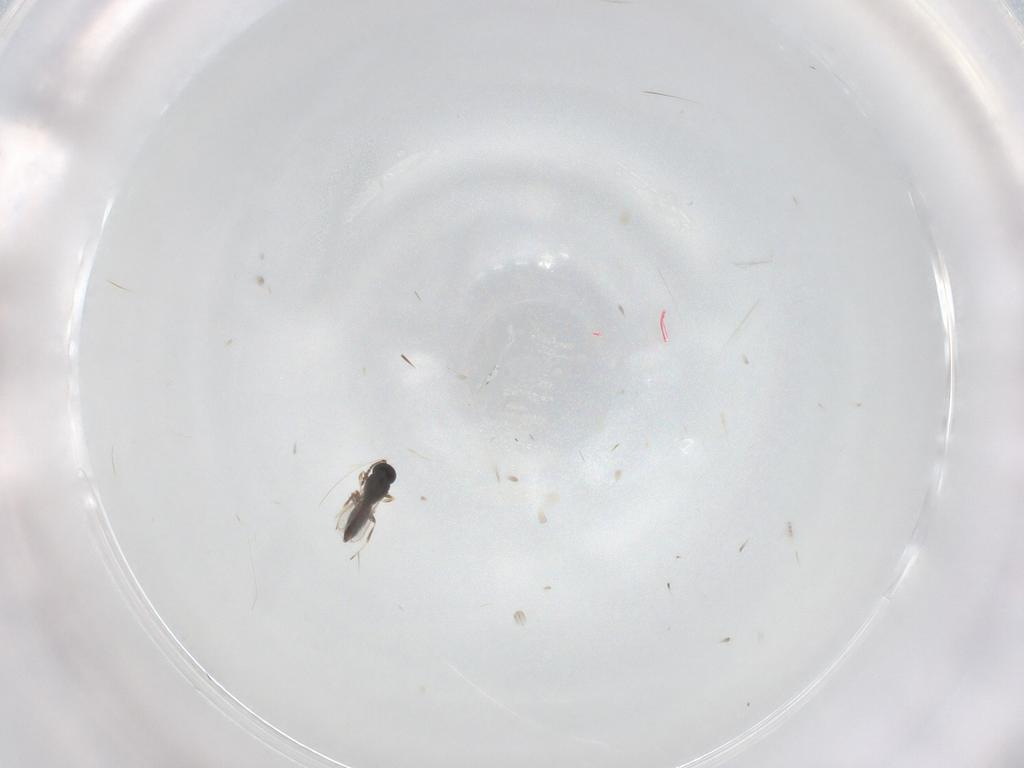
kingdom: Animalia
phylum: Arthropoda
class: Insecta
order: Hymenoptera
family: Scelionidae
